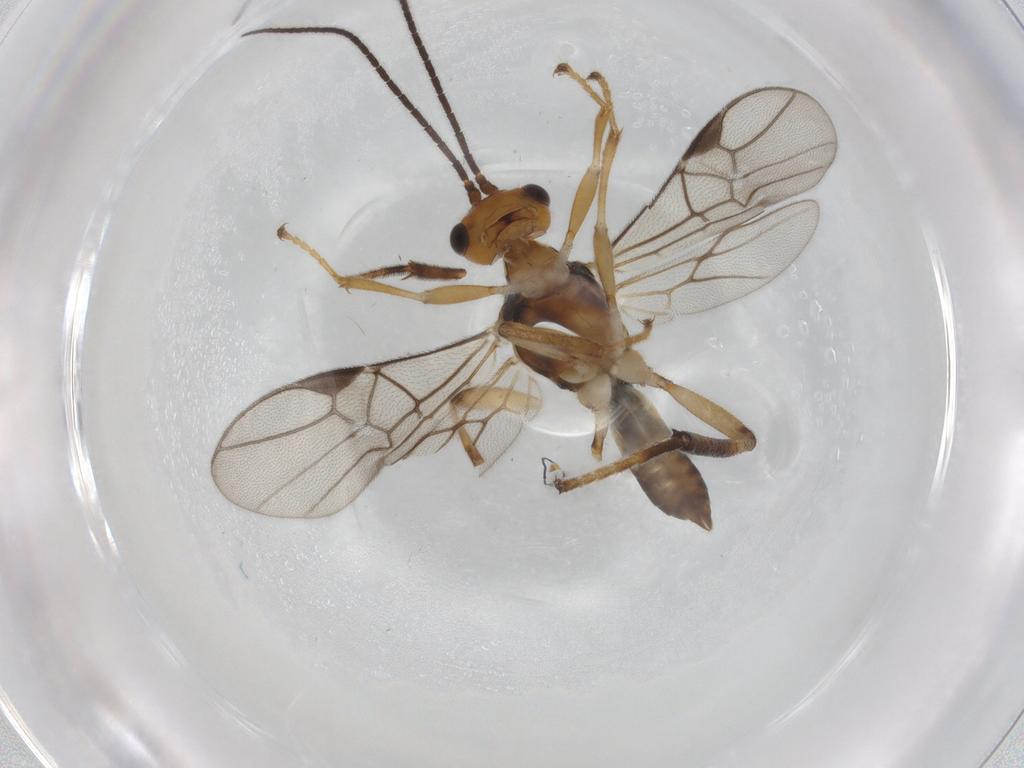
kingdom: Animalia
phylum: Arthropoda
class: Insecta
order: Hymenoptera
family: Braconidae
